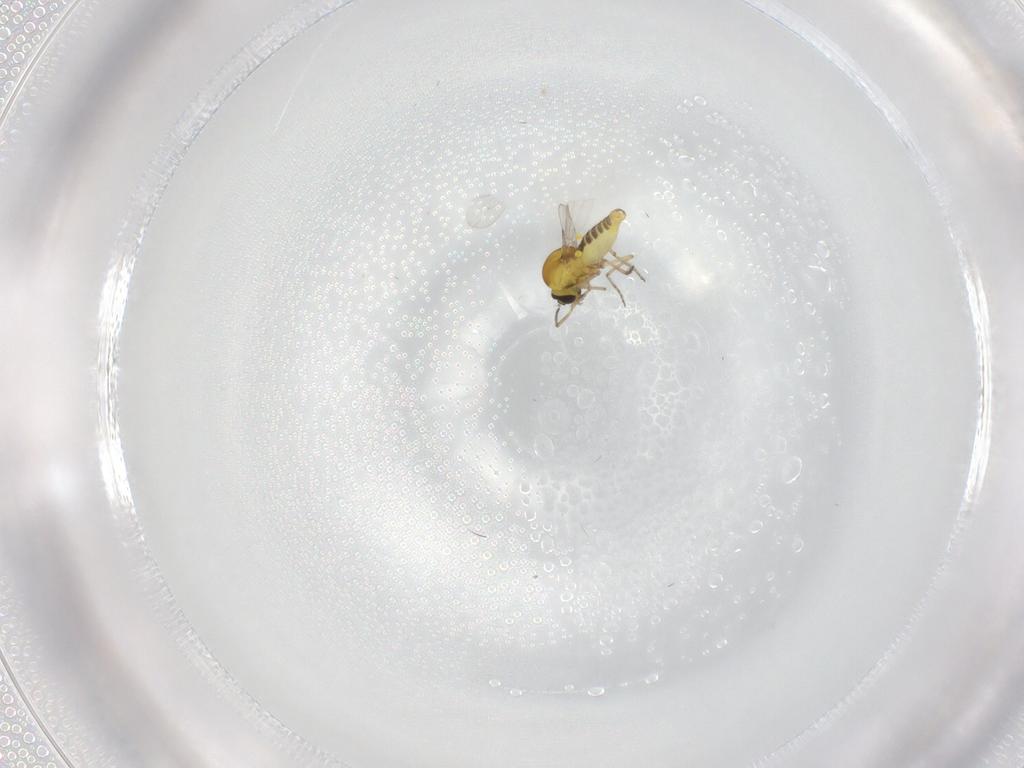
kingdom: Animalia
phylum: Arthropoda
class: Insecta
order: Diptera
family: Ceratopogonidae
